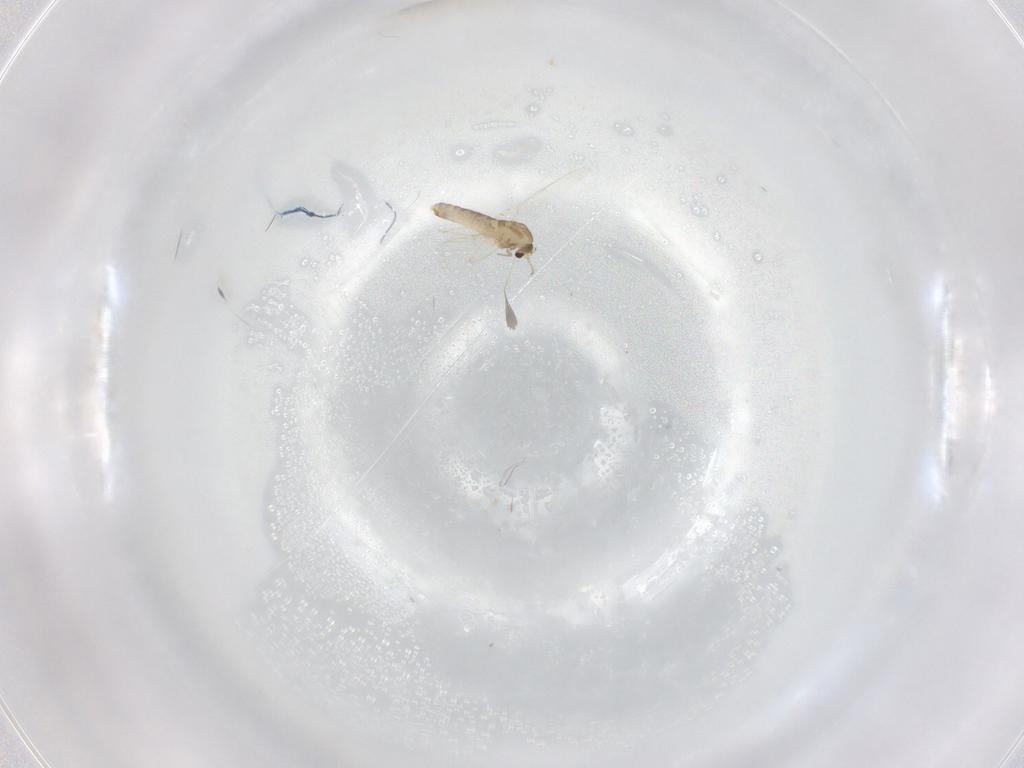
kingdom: Animalia
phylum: Arthropoda
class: Insecta
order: Diptera
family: Chironomidae
